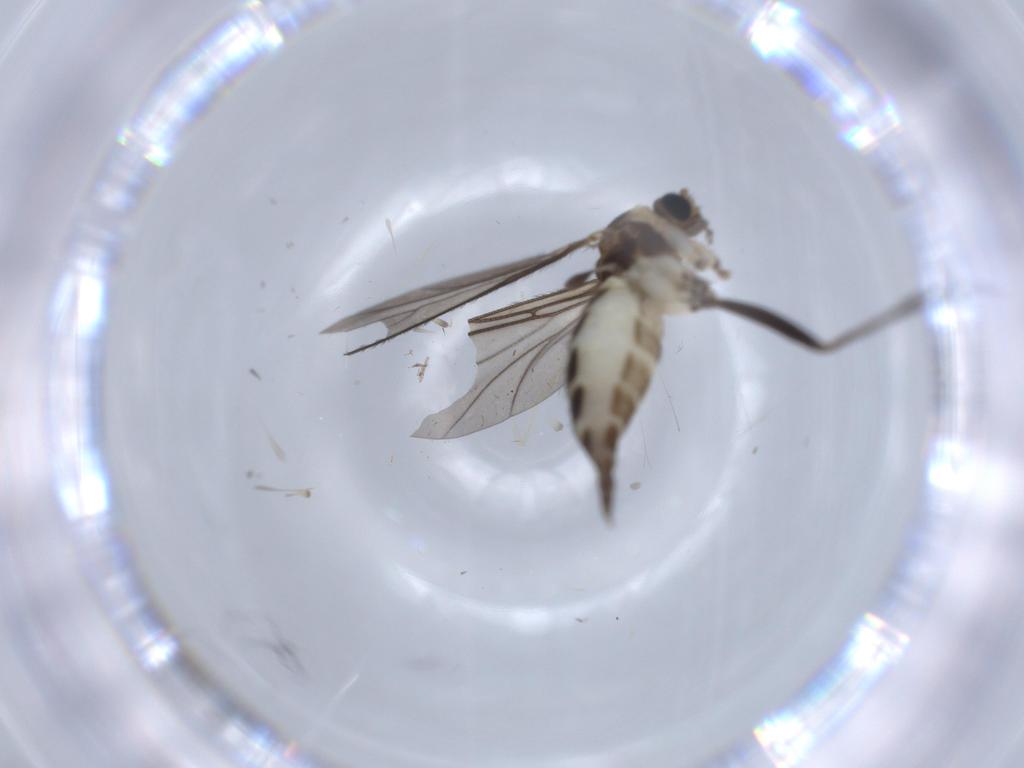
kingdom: Animalia
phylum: Arthropoda
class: Insecta
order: Diptera
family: Sciaridae
